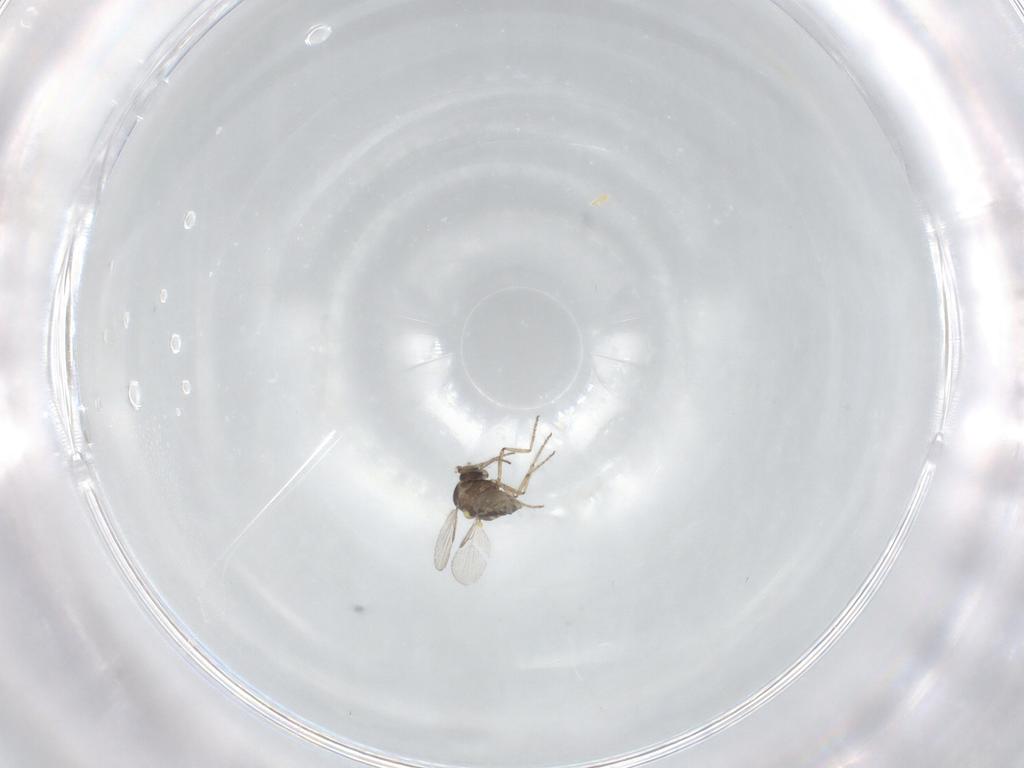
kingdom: Animalia
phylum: Arthropoda
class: Insecta
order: Diptera
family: Ceratopogonidae
